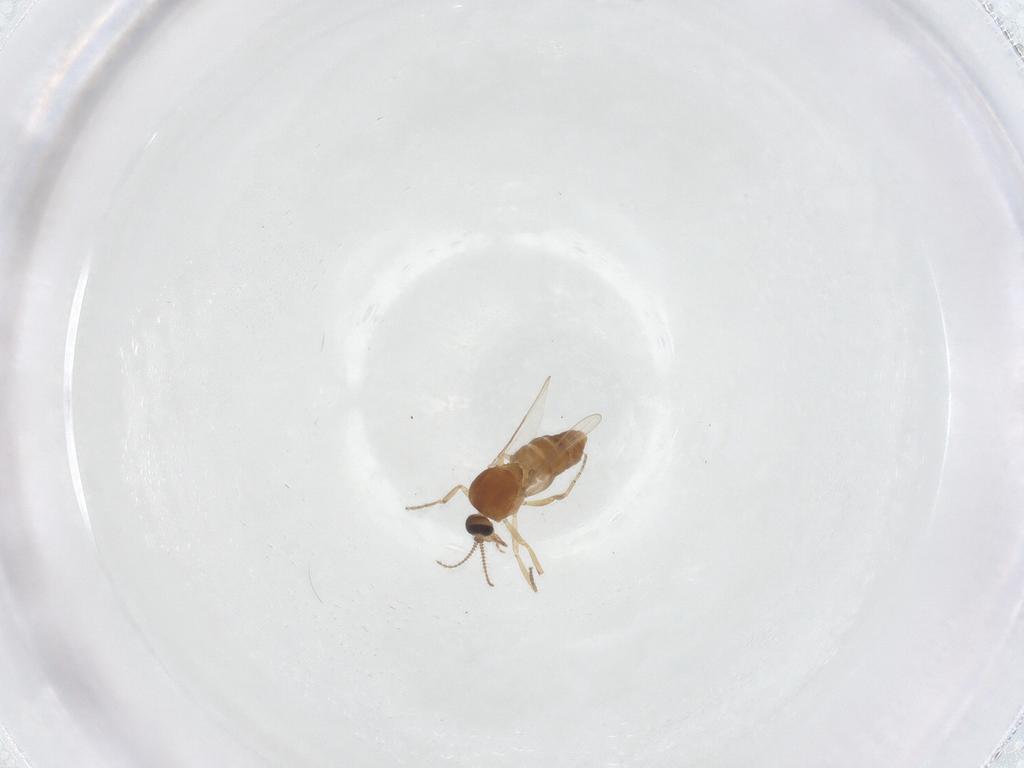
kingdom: Animalia
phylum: Arthropoda
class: Insecta
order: Diptera
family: Ceratopogonidae
